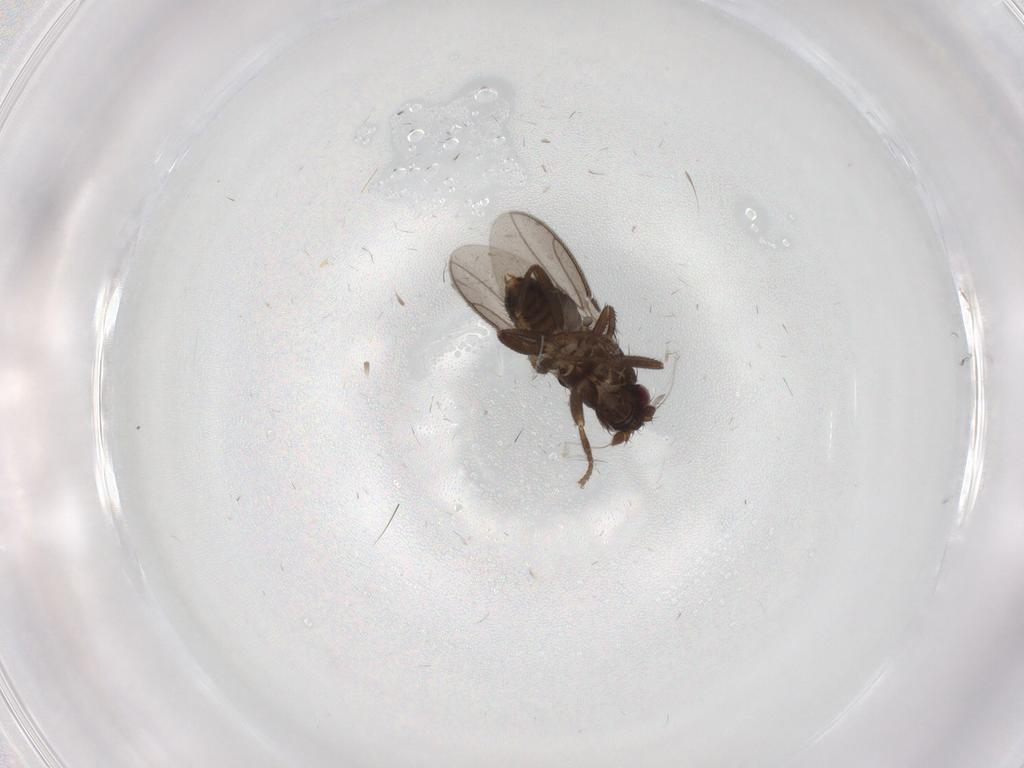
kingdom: Animalia
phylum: Arthropoda
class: Insecta
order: Diptera
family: Sphaeroceridae
